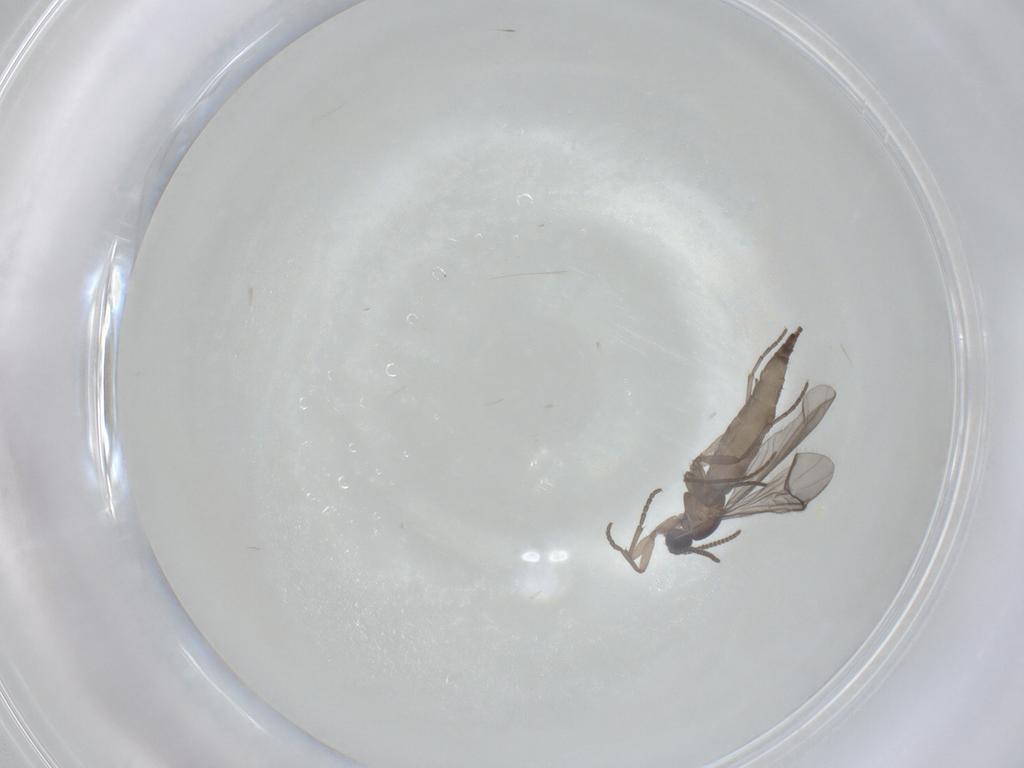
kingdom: Animalia
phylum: Arthropoda
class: Insecta
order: Diptera
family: Sciaridae
